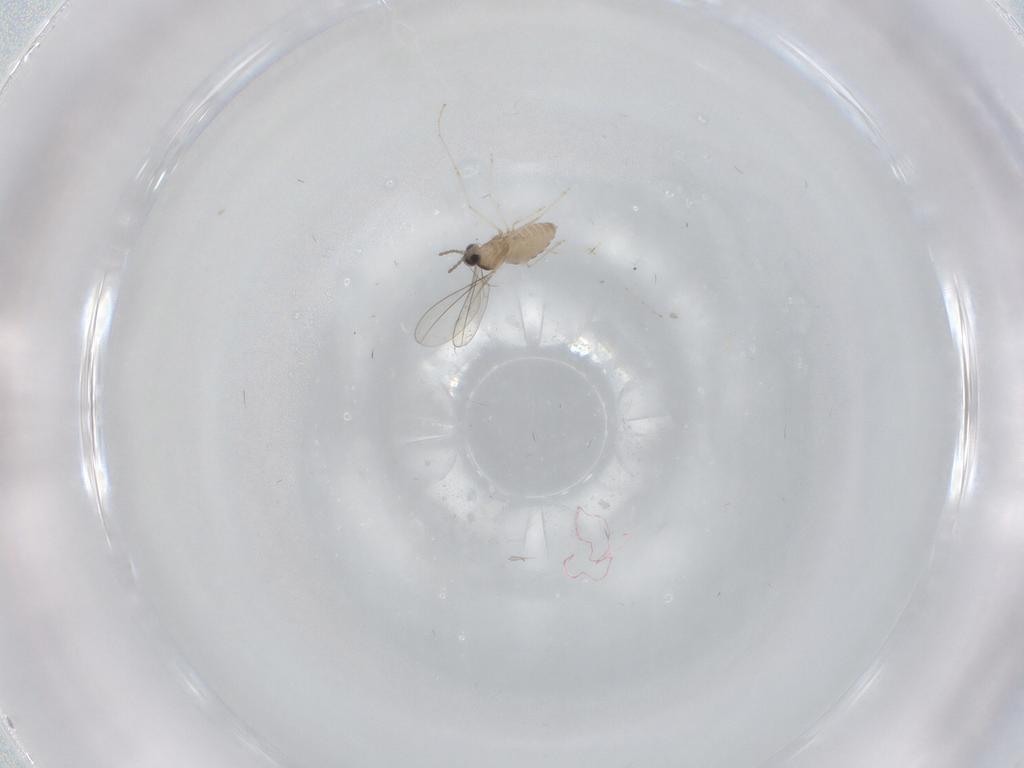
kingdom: Animalia
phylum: Arthropoda
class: Insecta
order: Diptera
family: Cecidomyiidae
